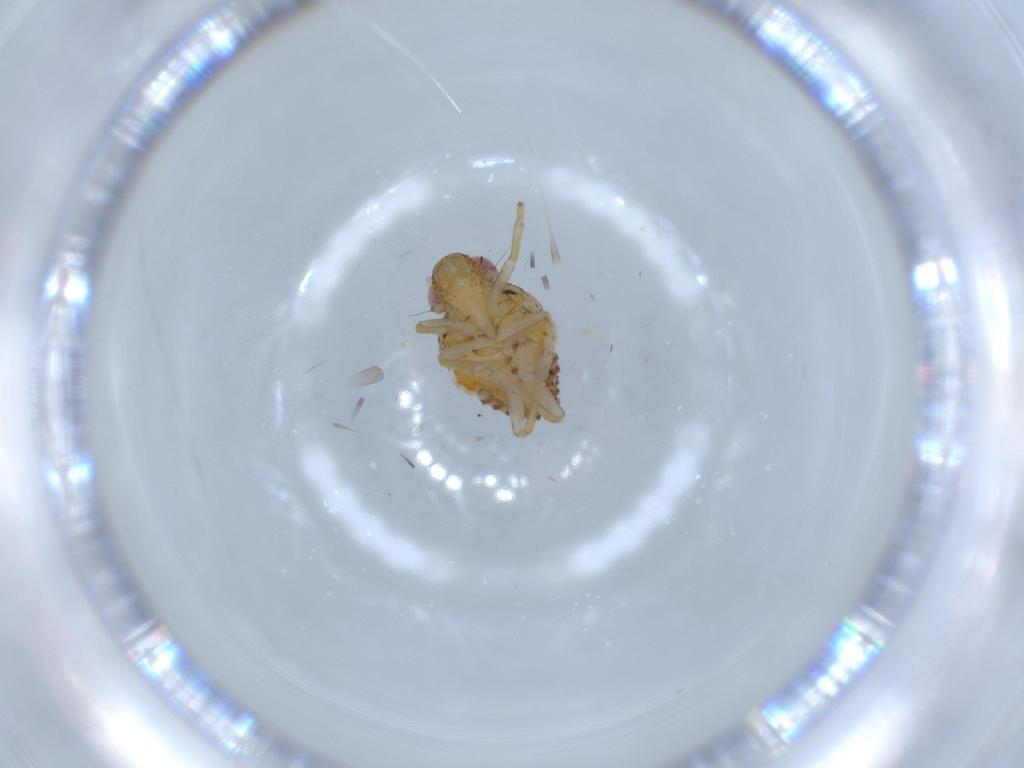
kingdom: Animalia
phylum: Arthropoda
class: Insecta
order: Hemiptera
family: Issidae
